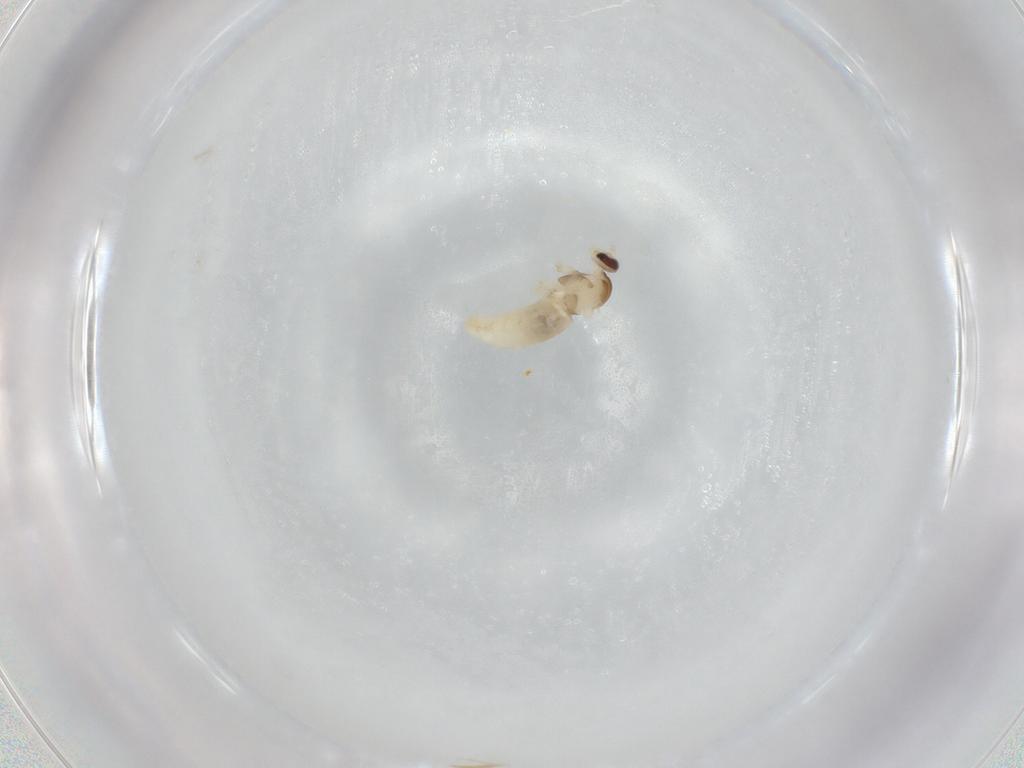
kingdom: Animalia
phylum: Arthropoda
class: Insecta
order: Diptera
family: Cecidomyiidae
